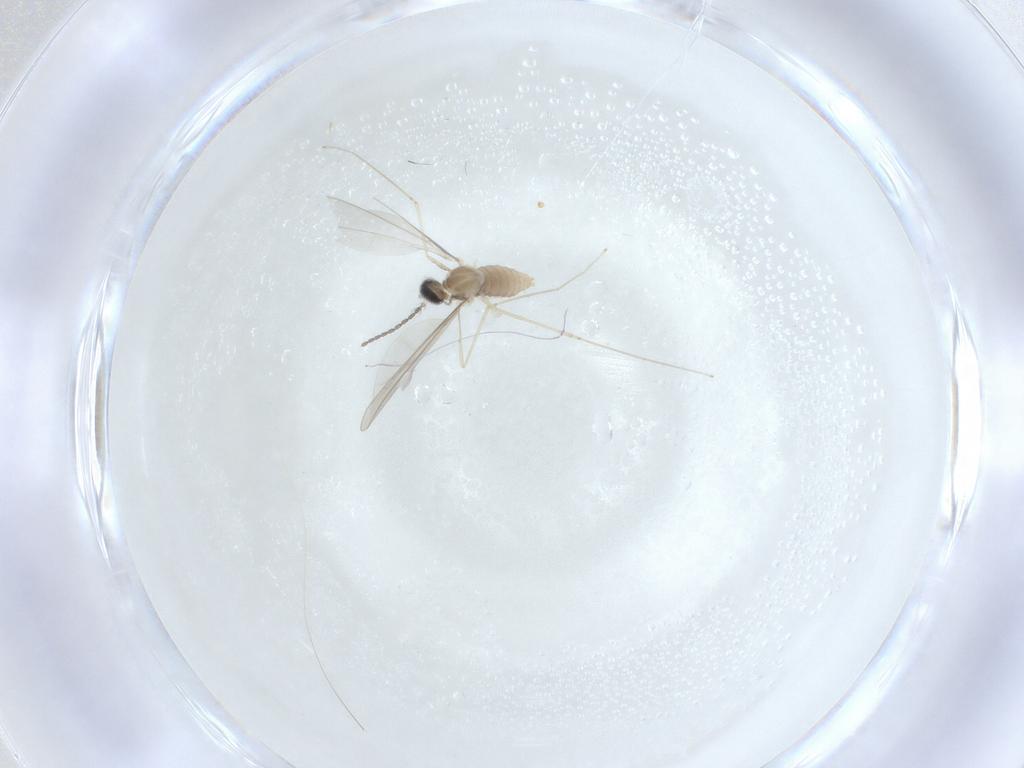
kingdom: Animalia
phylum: Arthropoda
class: Insecta
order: Diptera
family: Cecidomyiidae
